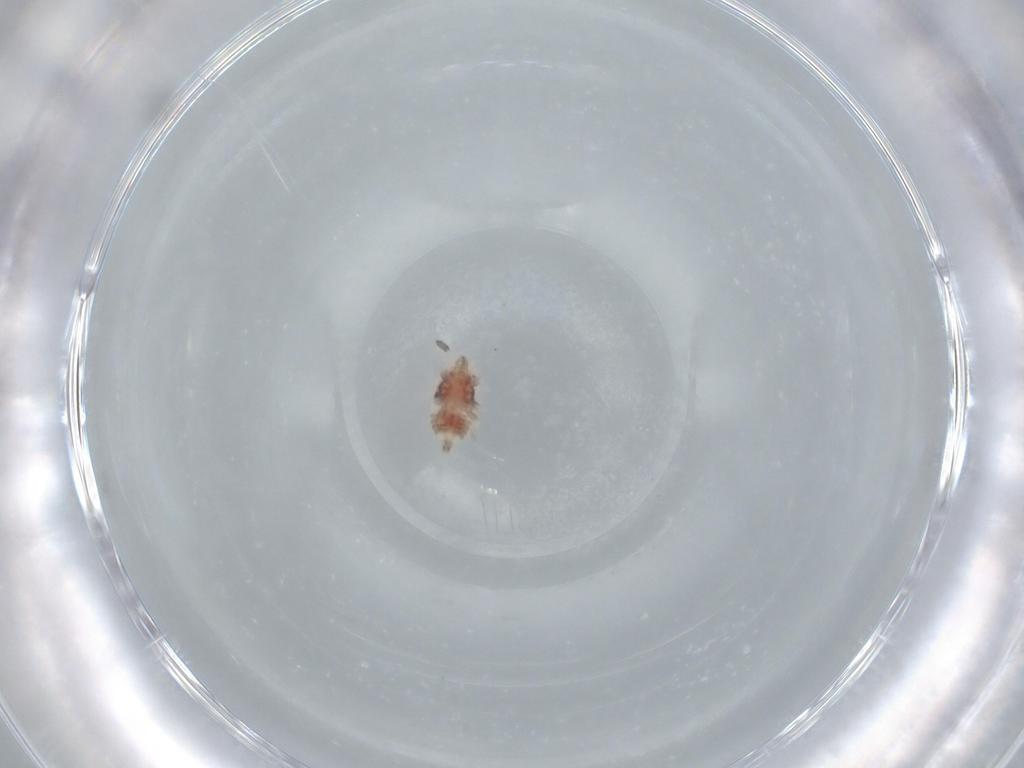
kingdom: Animalia
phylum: Arthropoda
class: Insecta
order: Hemiptera
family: Aradidae
